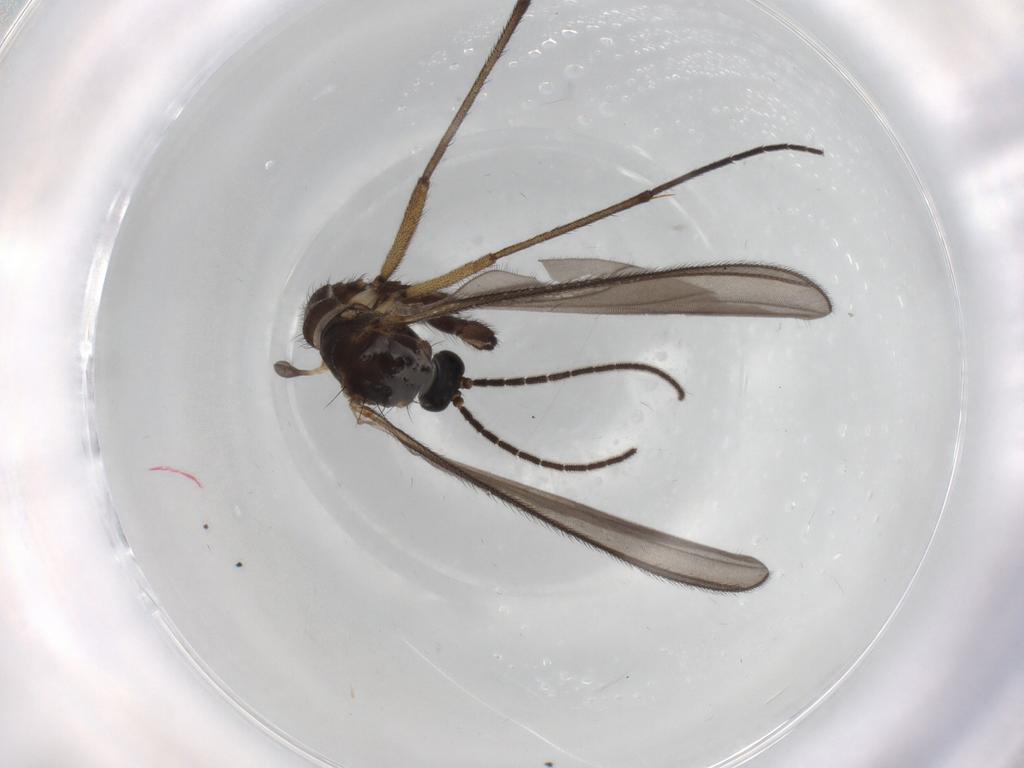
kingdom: Animalia
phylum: Arthropoda
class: Insecta
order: Diptera
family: Sciaridae
